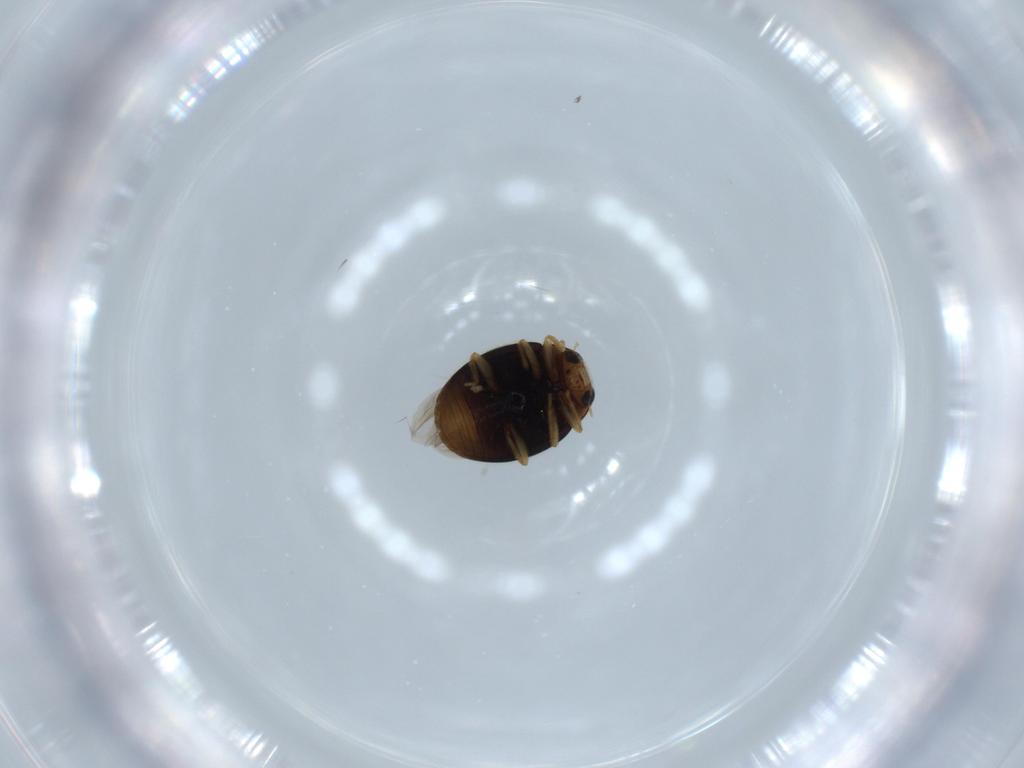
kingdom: Animalia
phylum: Arthropoda
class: Insecta
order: Coleoptera
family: Coccinellidae
